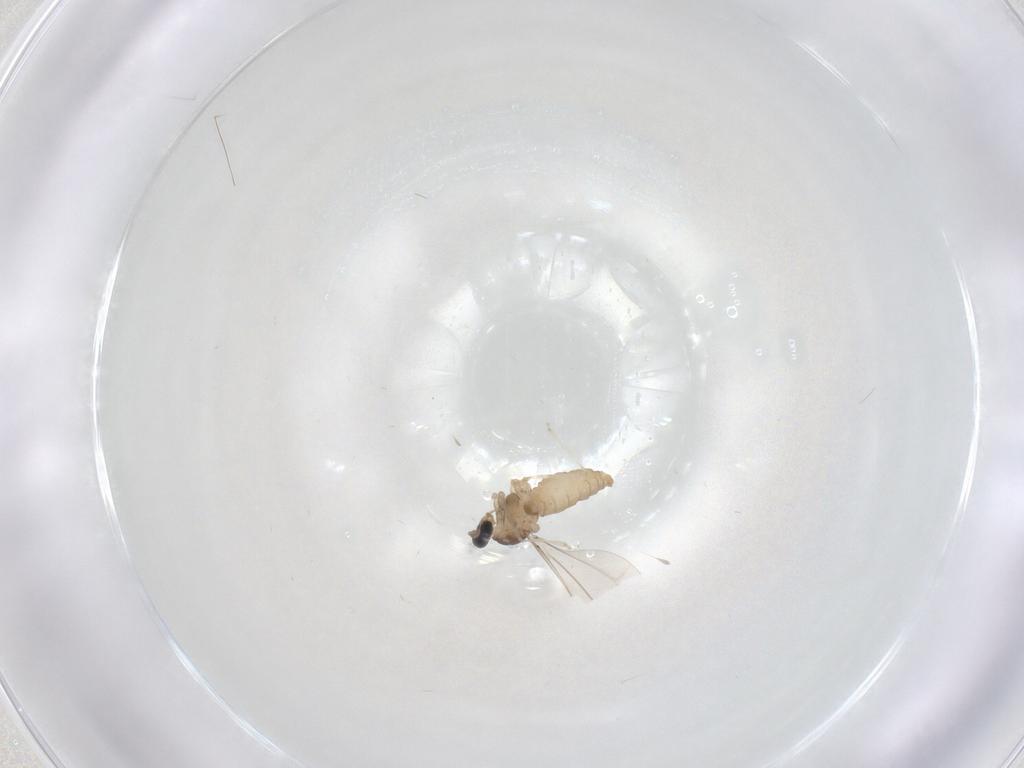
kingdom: Animalia
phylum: Arthropoda
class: Insecta
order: Diptera
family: Cecidomyiidae
